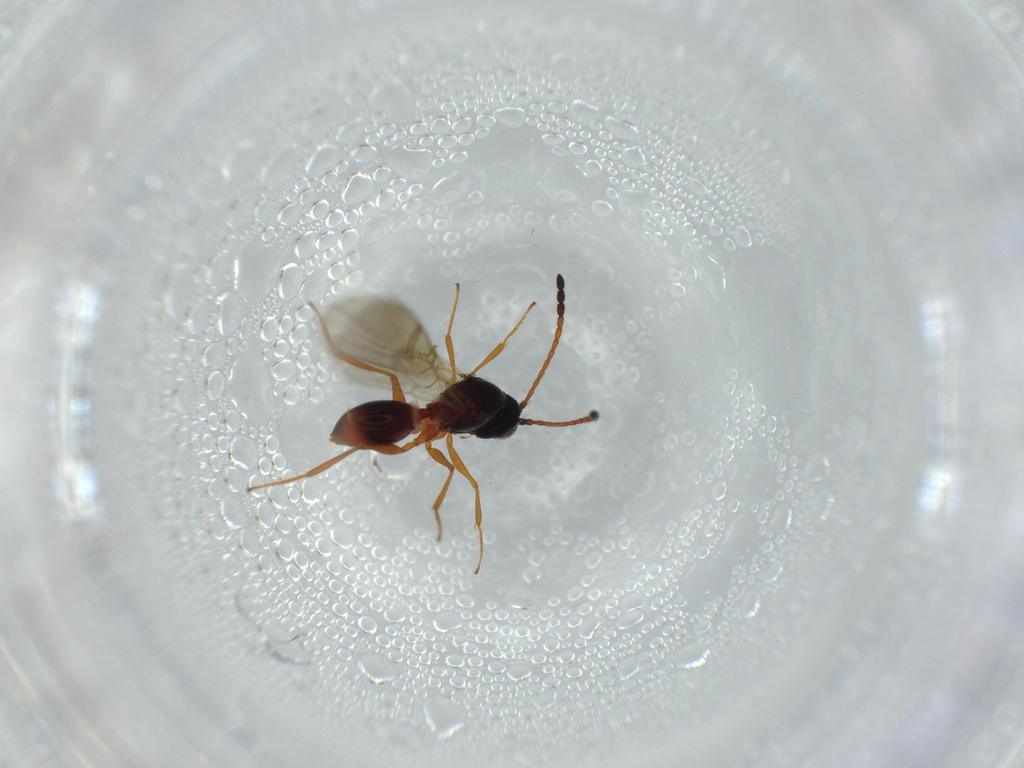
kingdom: Animalia
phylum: Arthropoda
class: Insecta
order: Hymenoptera
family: Figitidae
